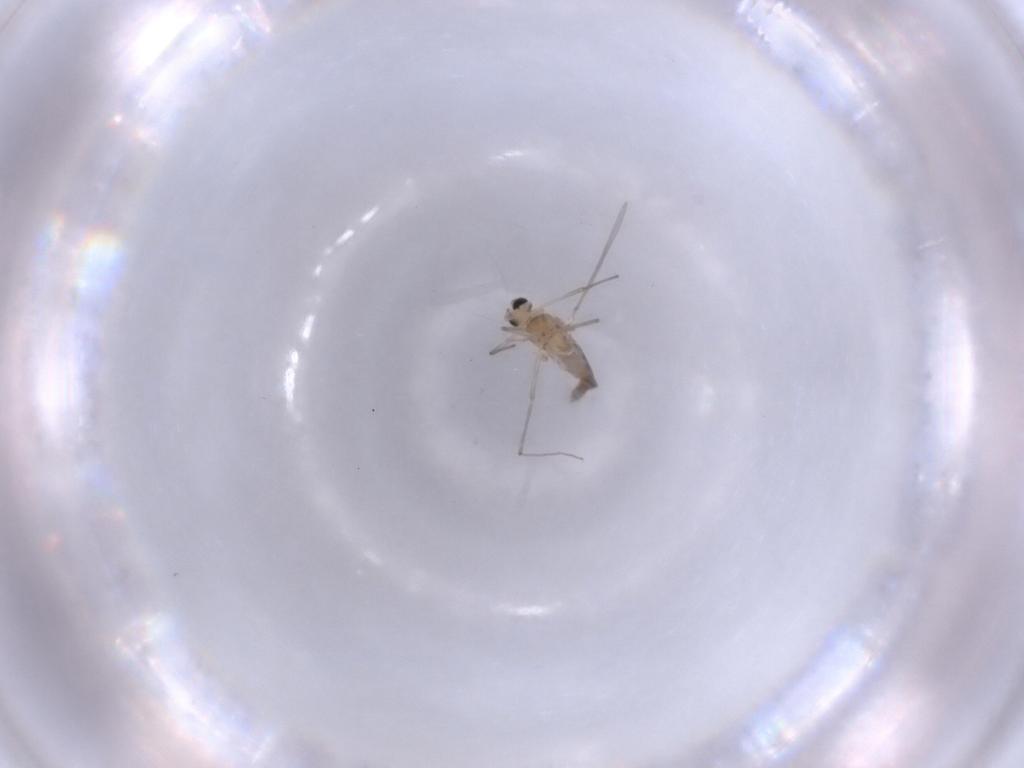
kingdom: Animalia
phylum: Arthropoda
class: Insecta
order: Diptera
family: Chironomidae
